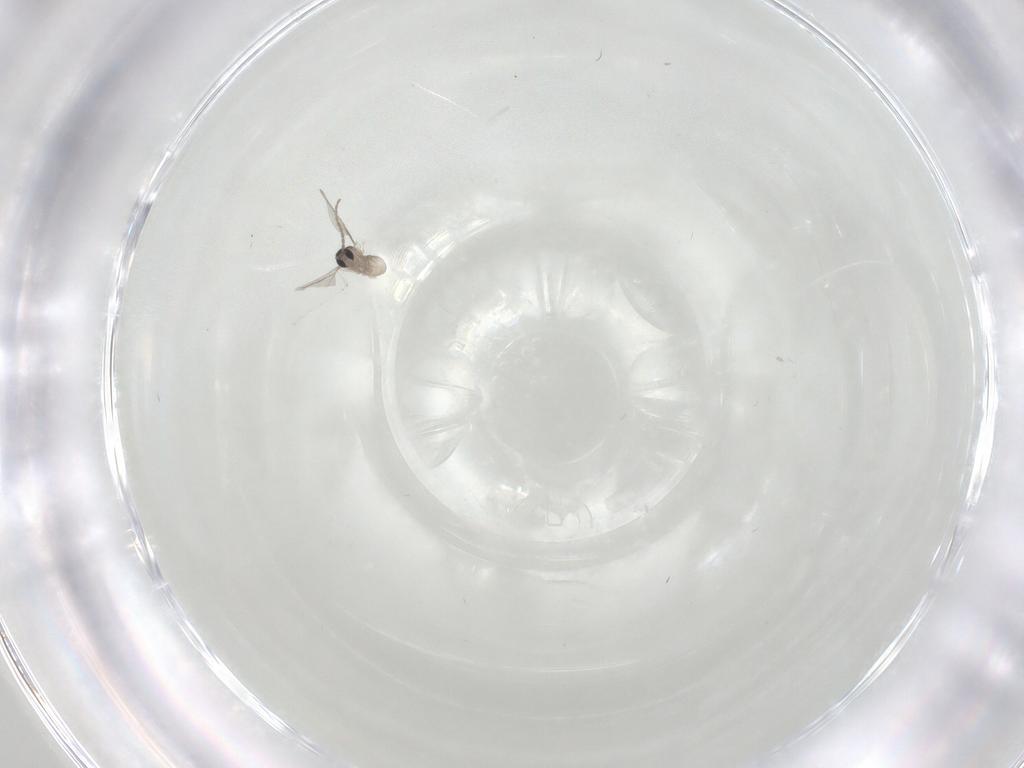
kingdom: Animalia
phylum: Arthropoda
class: Insecta
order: Diptera
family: Cecidomyiidae
